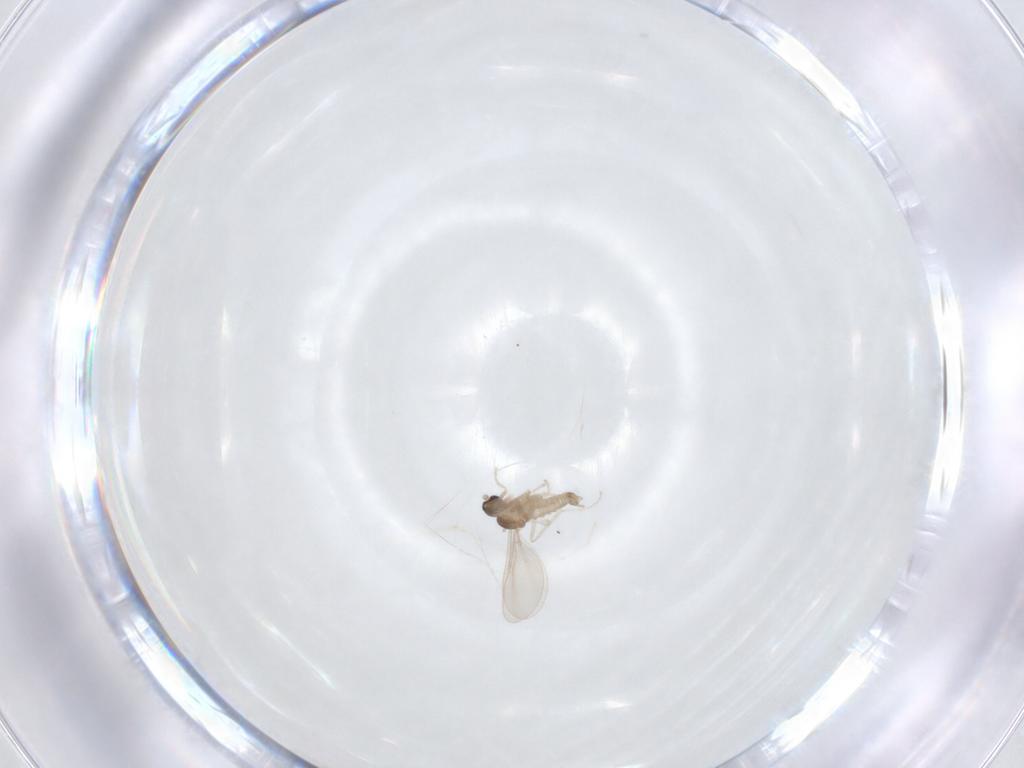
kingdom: Animalia
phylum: Arthropoda
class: Insecta
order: Diptera
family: Cecidomyiidae
